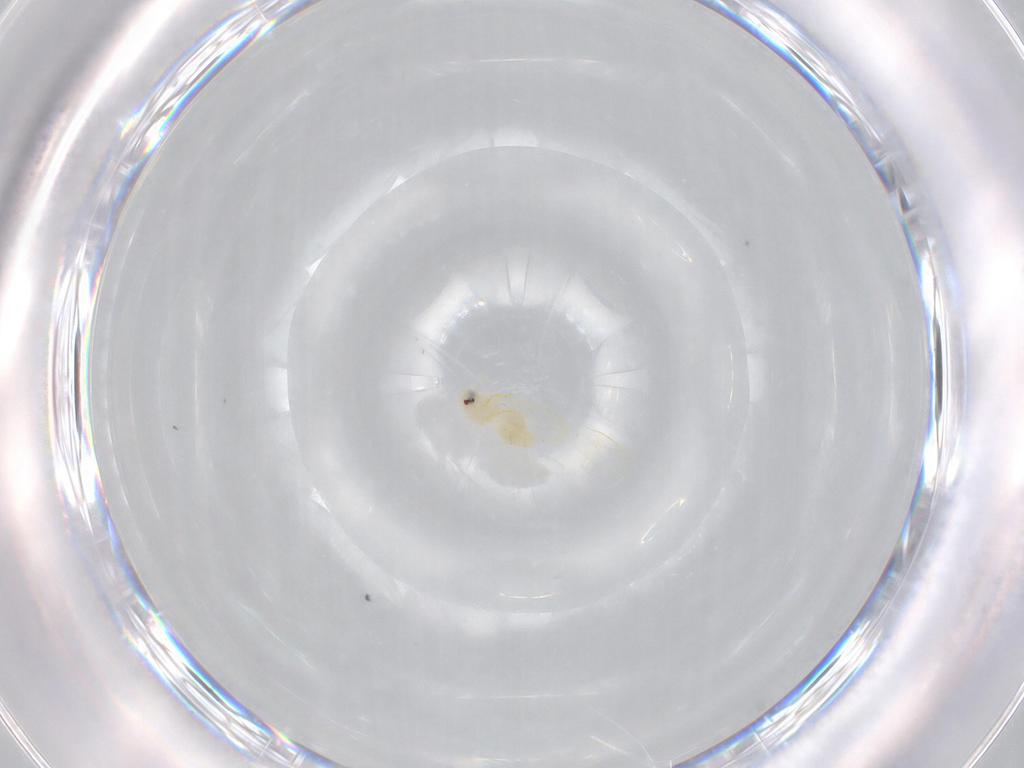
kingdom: Animalia
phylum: Arthropoda
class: Insecta
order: Hemiptera
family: Aleyrodidae
